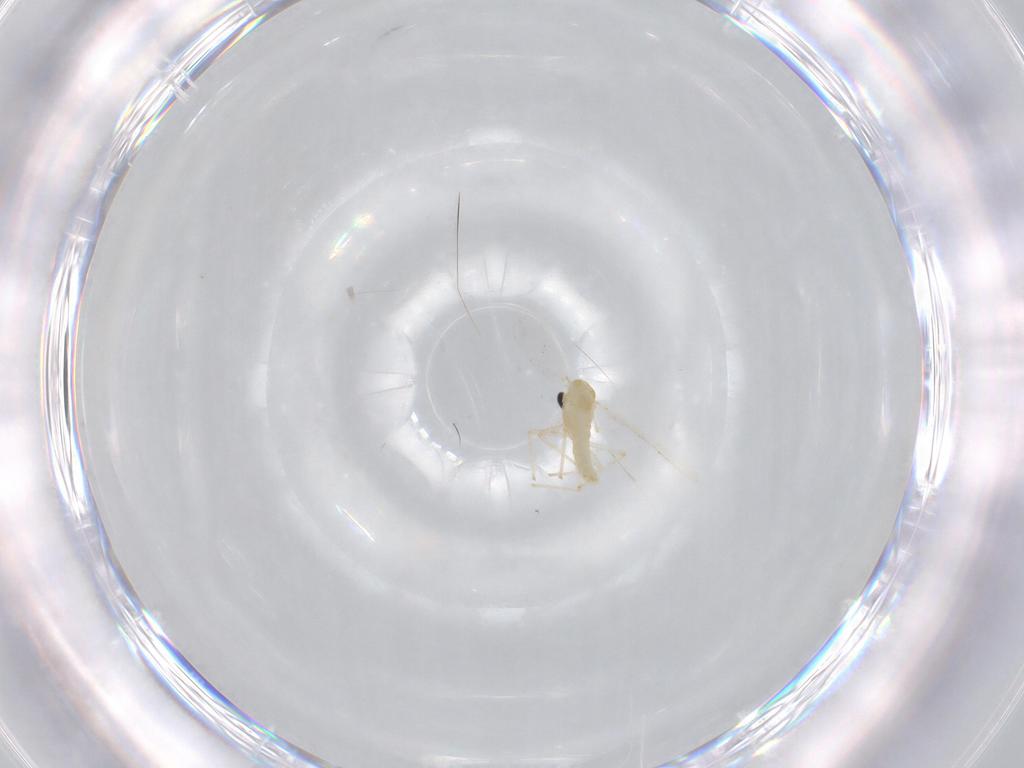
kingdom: Animalia
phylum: Arthropoda
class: Insecta
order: Diptera
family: Chironomidae
